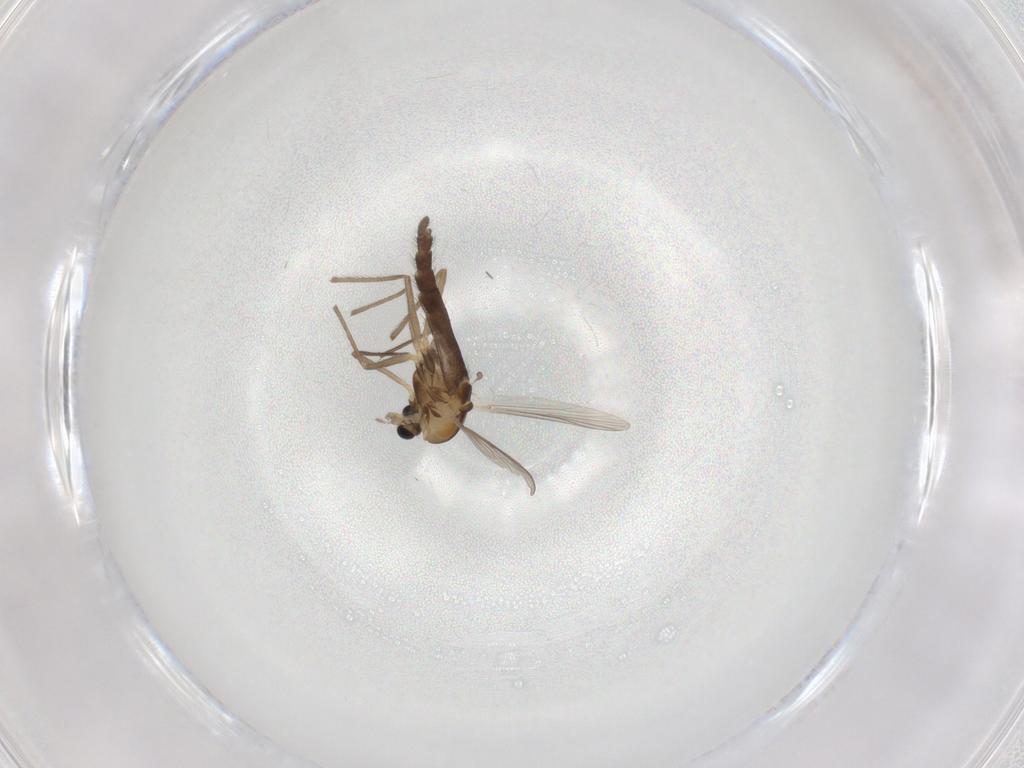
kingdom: Animalia
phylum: Arthropoda
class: Insecta
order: Diptera
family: Chironomidae
